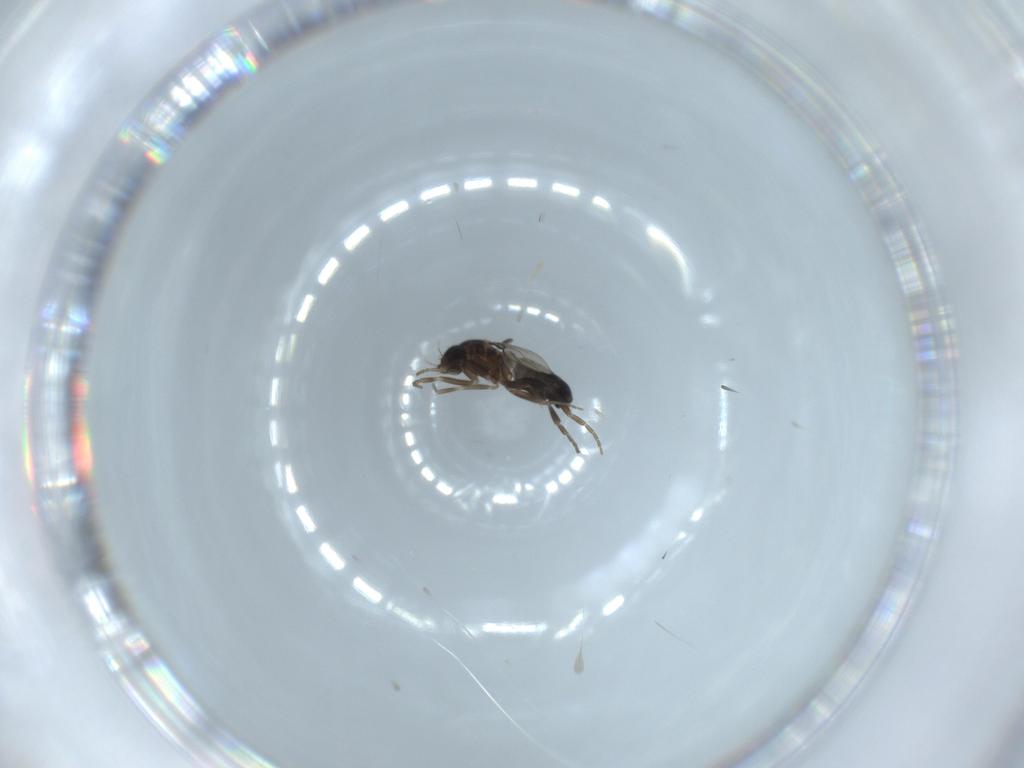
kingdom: Animalia
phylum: Arthropoda
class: Insecta
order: Diptera
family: Phoridae
